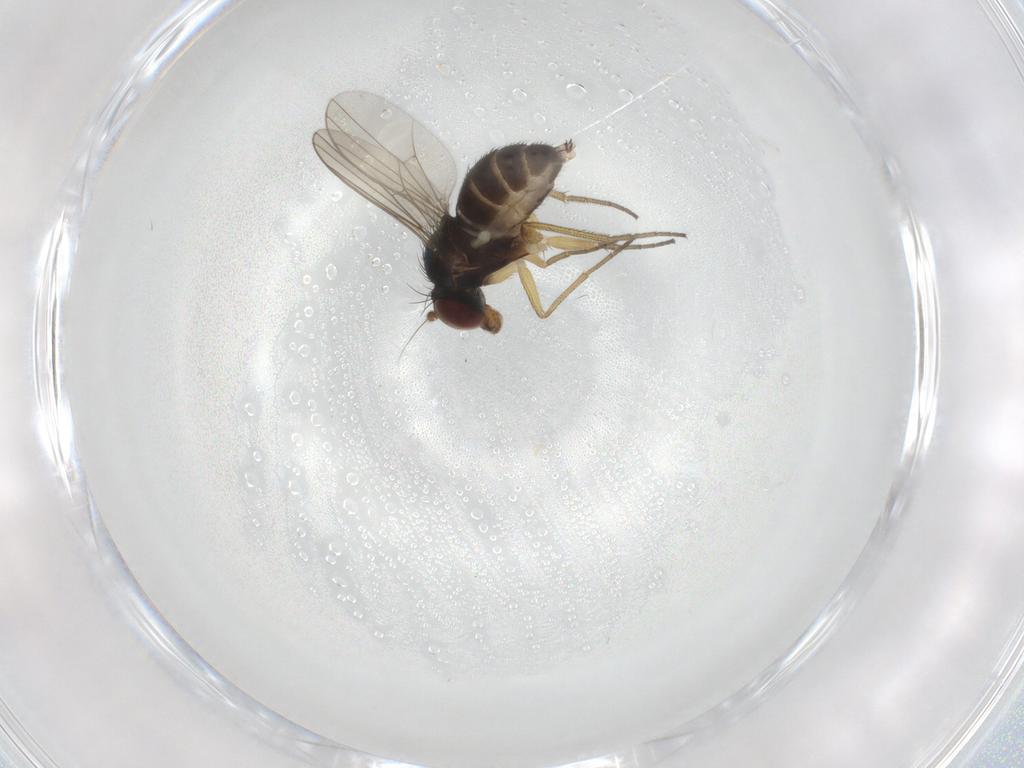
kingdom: Animalia
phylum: Arthropoda
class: Insecta
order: Diptera
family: Dolichopodidae
